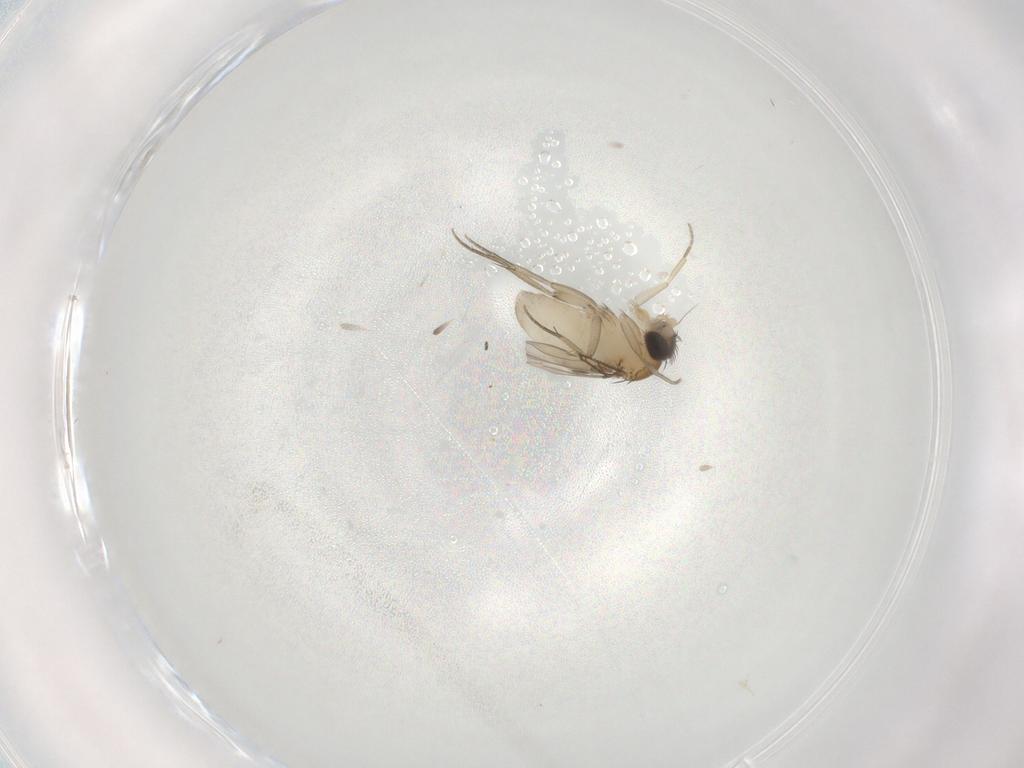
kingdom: Animalia
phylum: Arthropoda
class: Insecta
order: Diptera
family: Phoridae
